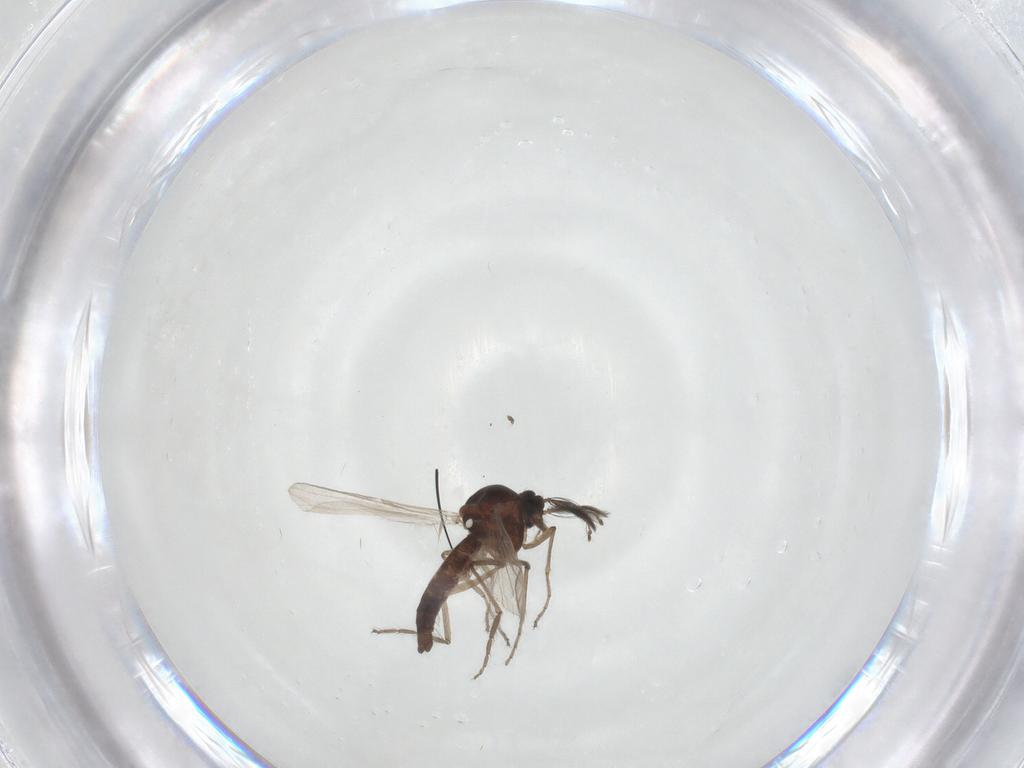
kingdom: Animalia
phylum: Arthropoda
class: Insecta
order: Diptera
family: Ceratopogonidae
